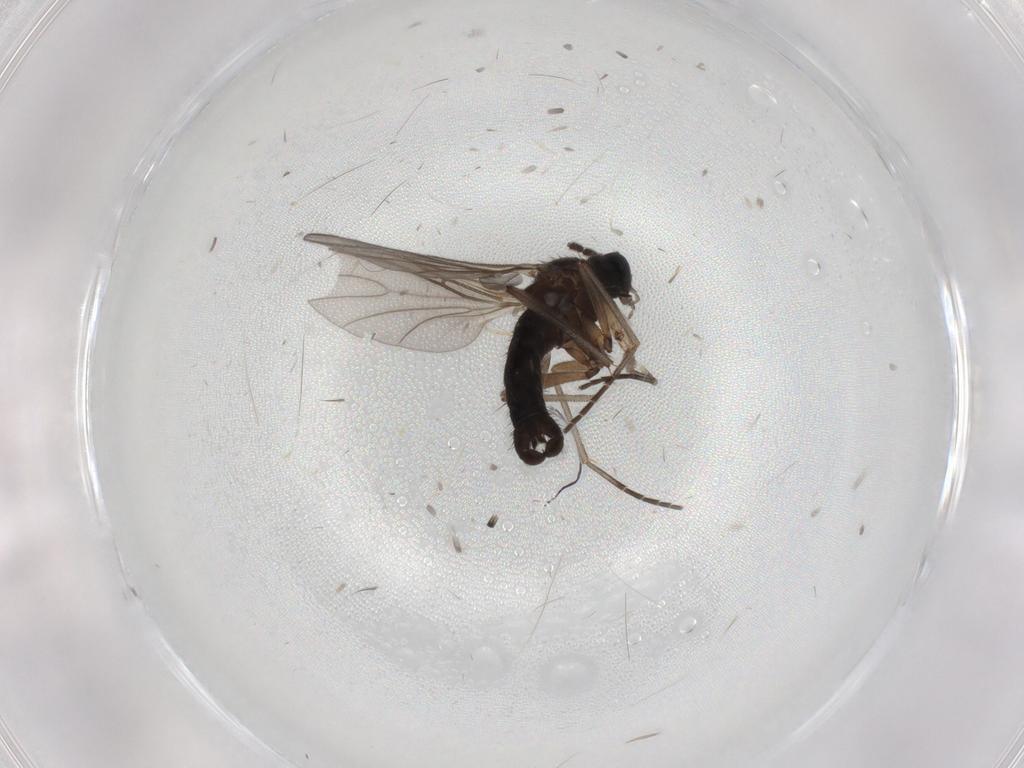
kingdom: Animalia
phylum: Arthropoda
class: Insecta
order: Diptera
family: Sciaridae
